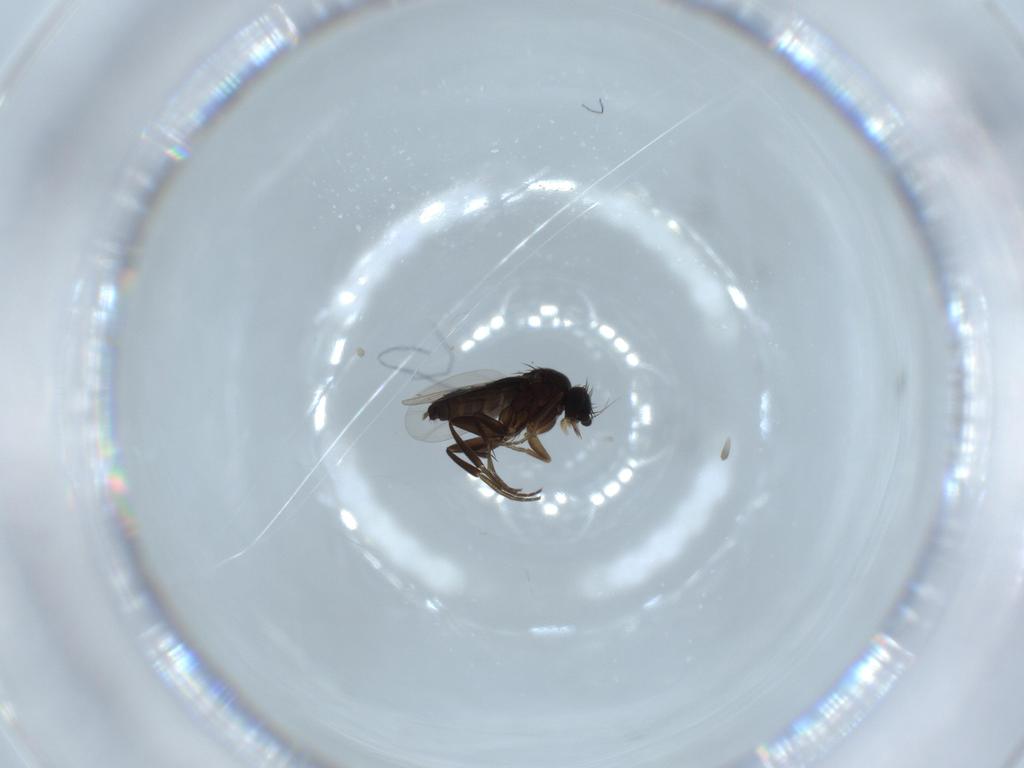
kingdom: Animalia
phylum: Arthropoda
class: Insecta
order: Diptera
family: Phoridae
